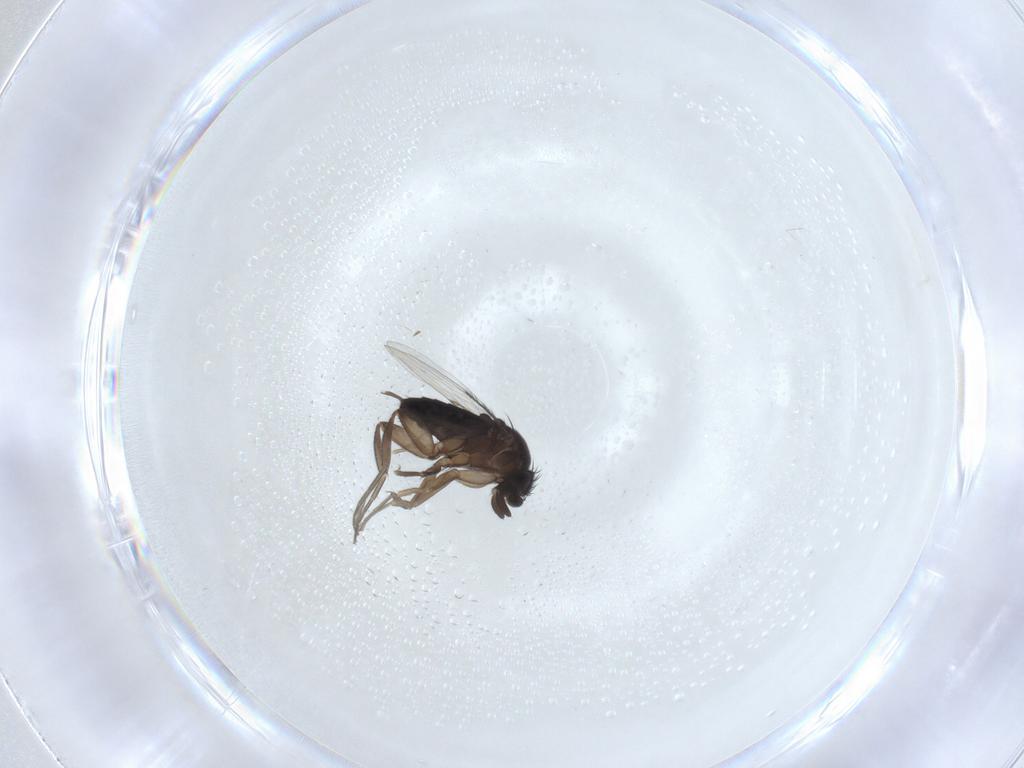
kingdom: Animalia
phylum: Arthropoda
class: Insecta
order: Diptera
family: Phoridae
